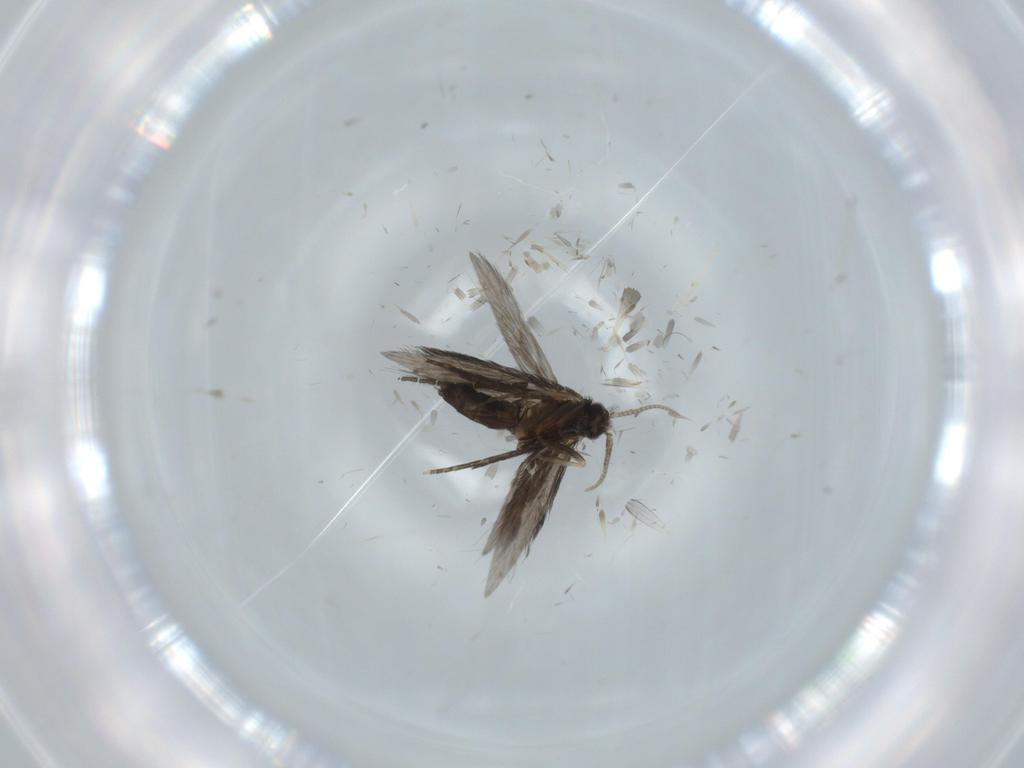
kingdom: Animalia
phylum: Arthropoda
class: Insecta
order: Trichoptera
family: Hydroptilidae
